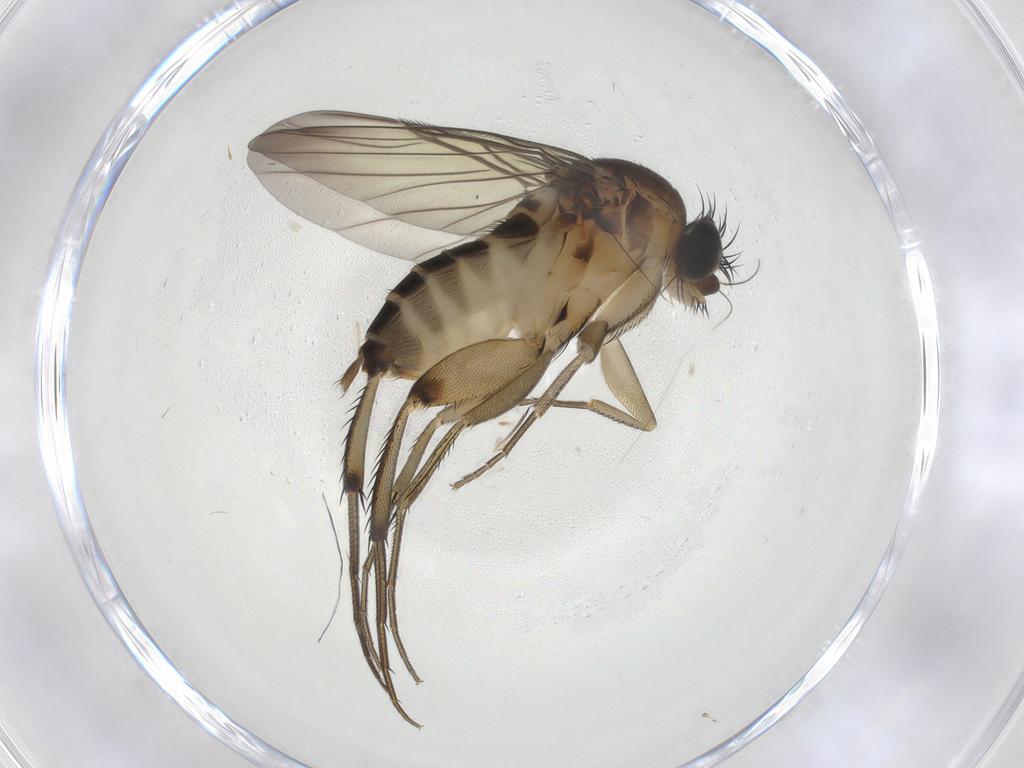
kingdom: Animalia
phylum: Arthropoda
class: Insecta
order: Diptera
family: Phoridae
